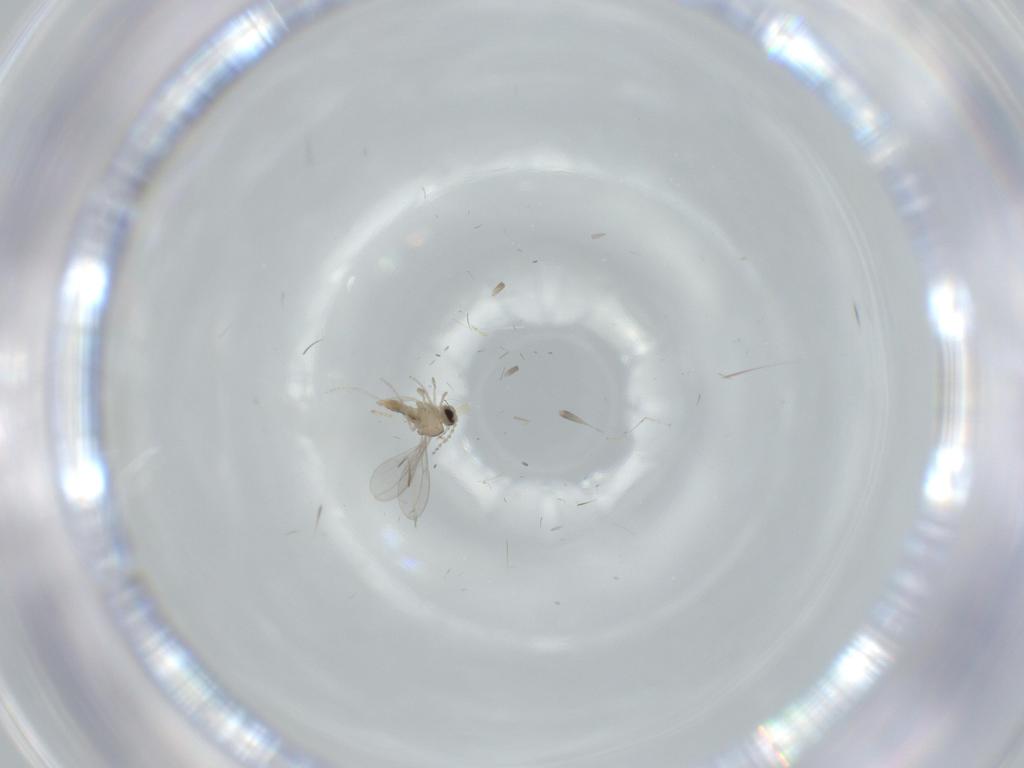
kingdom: Animalia
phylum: Arthropoda
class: Insecta
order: Diptera
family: Cecidomyiidae
